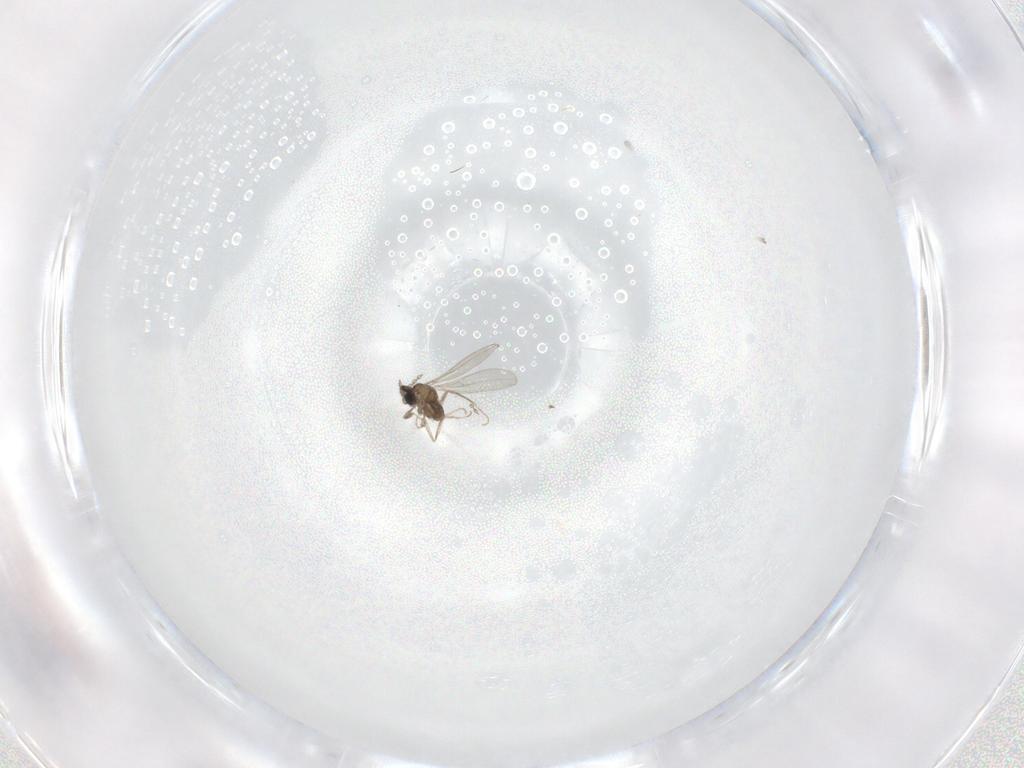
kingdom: Animalia
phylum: Arthropoda
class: Insecta
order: Diptera
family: Cecidomyiidae
